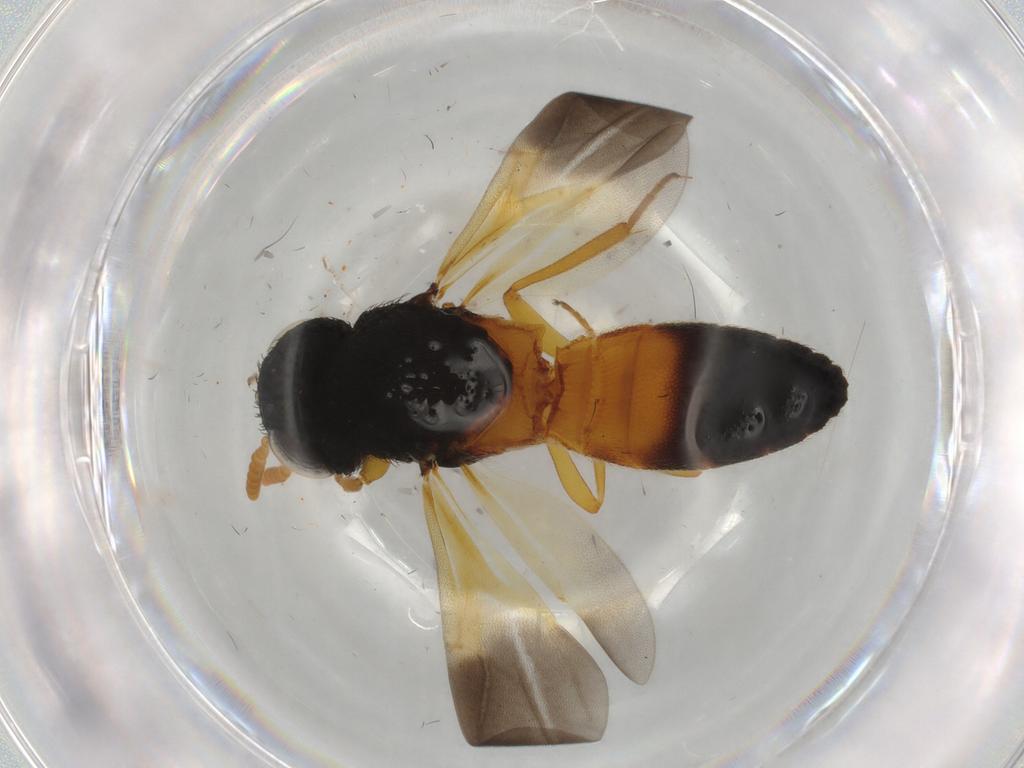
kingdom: Animalia
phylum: Arthropoda
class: Insecta
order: Hymenoptera
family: Scelionidae
